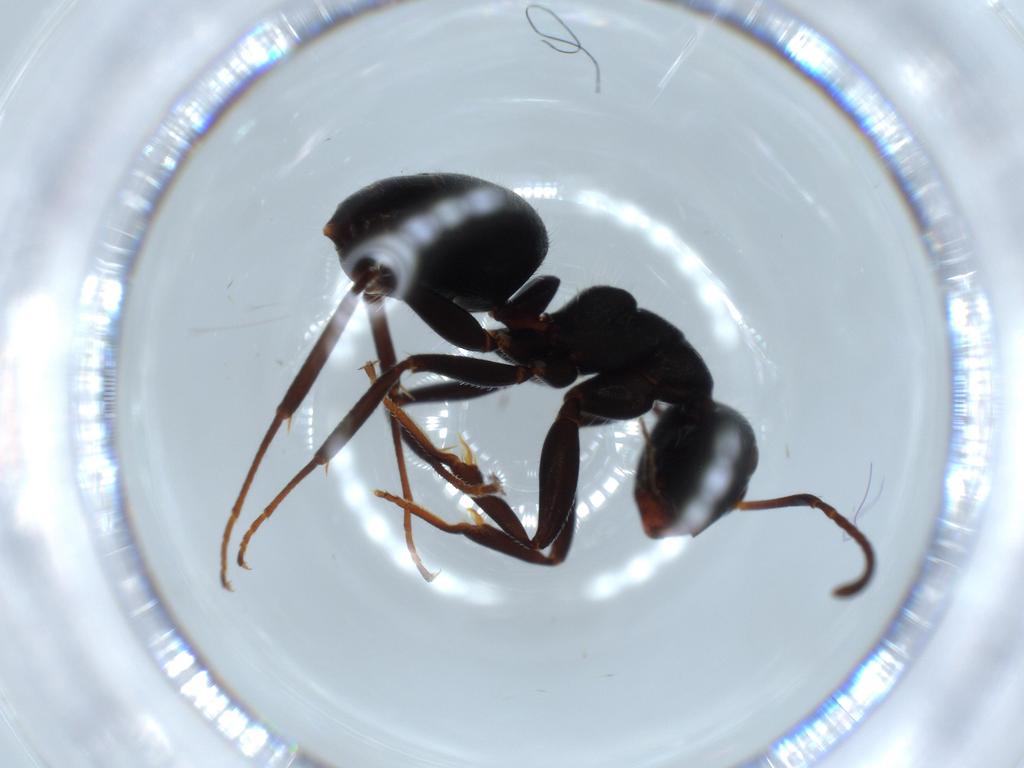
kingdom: Animalia
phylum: Arthropoda
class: Insecta
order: Hymenoptera
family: Formicidae
